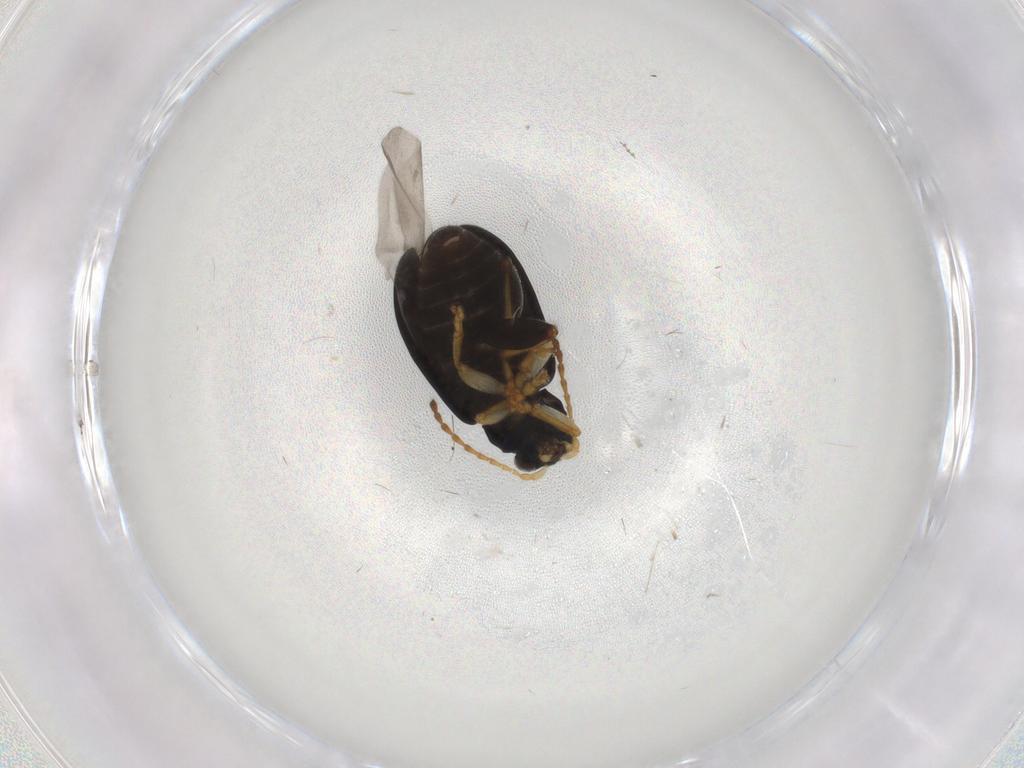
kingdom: Animalia
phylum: Arthropoda
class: Insecta
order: Coleoptera
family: Chrysomelidae
